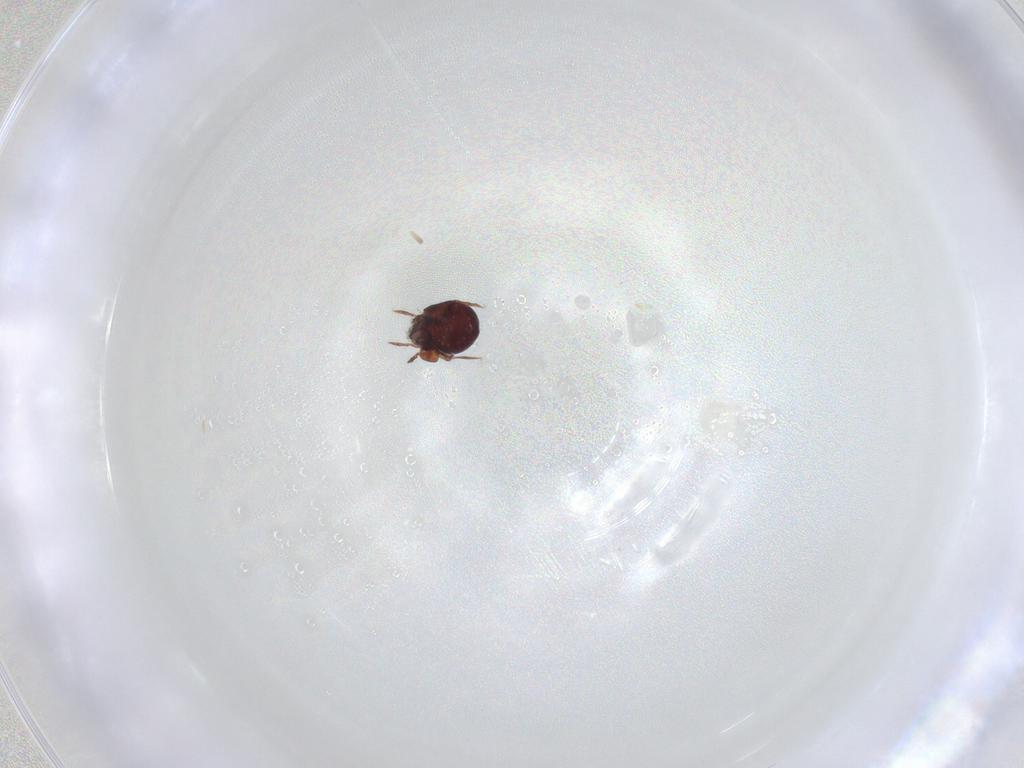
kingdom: Animalia
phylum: Arthropoda
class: Arachnida
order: Sarcoptiformes
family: Humerobatidae
